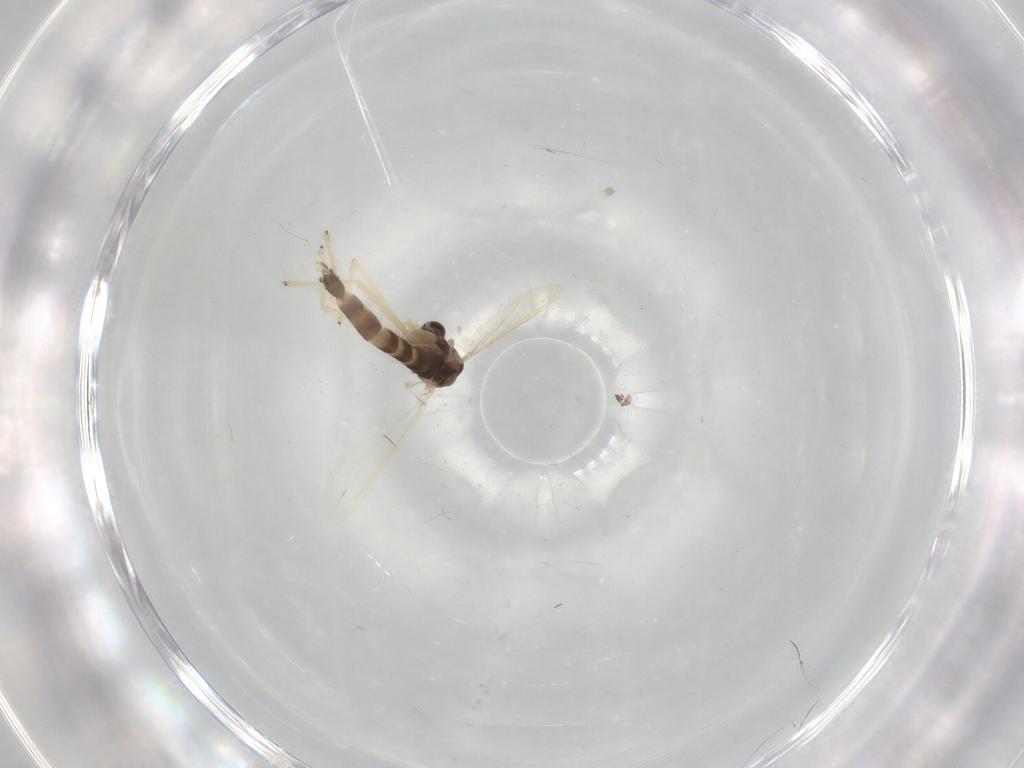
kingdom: Animalia
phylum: Arthropoda
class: Insecta
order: Diptera
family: Chironomidae
